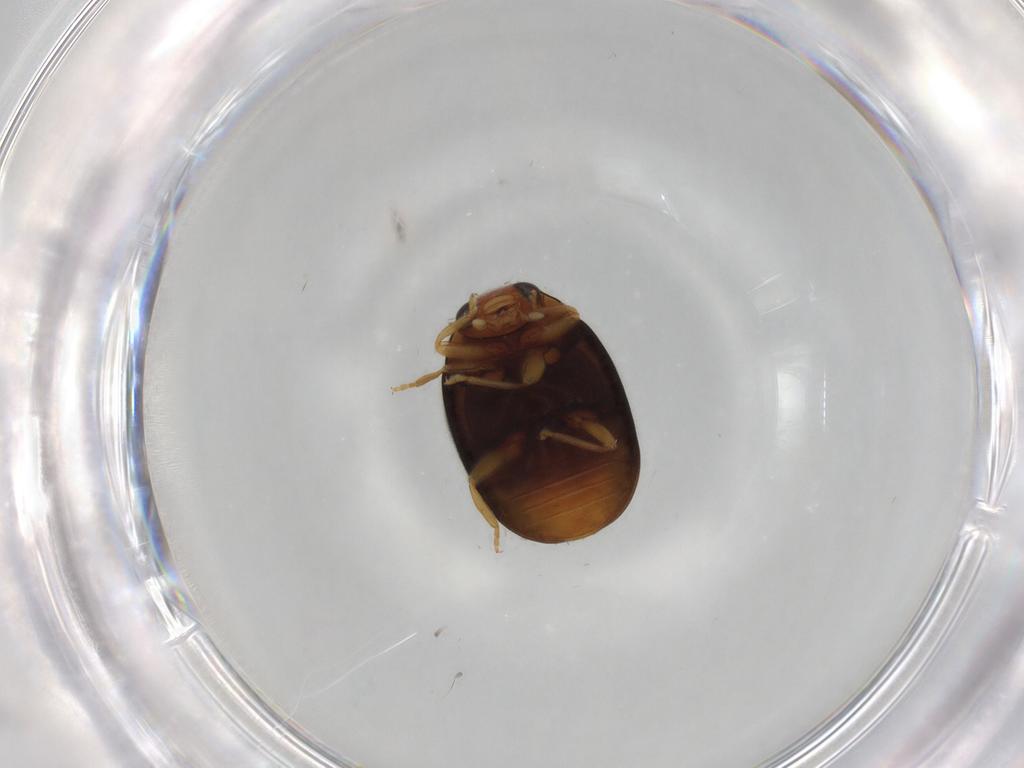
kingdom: Animalia
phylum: Arthropoda
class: Insecta
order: Coleoptera
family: Coccinellidae
